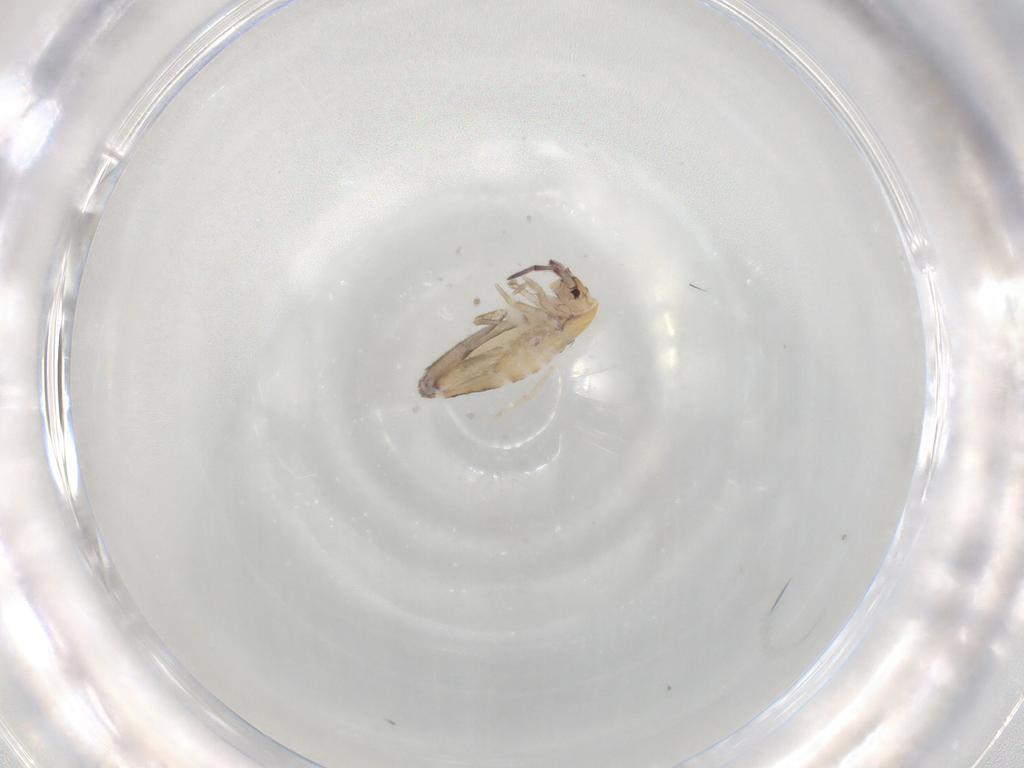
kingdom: Animalia
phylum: Arthropoda
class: Collembola
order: Entomobryomorpha
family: Entomobryidae
